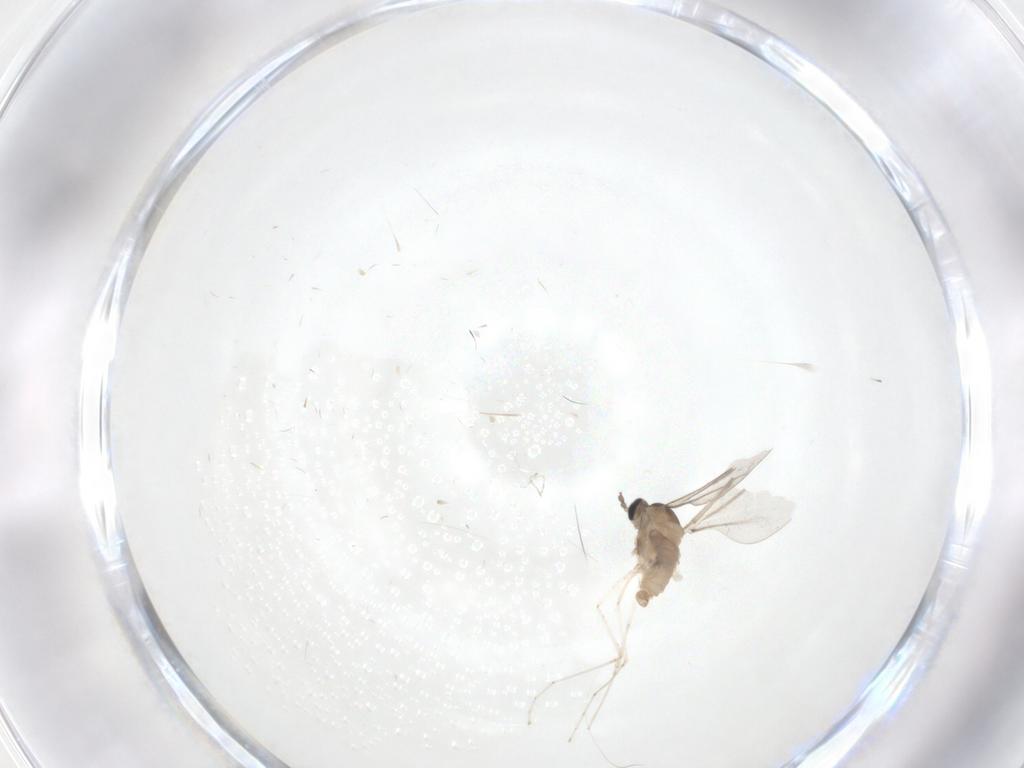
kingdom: Animalia
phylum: Arthropoda
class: Insecta
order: Diptera
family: Cecidomyiidae
